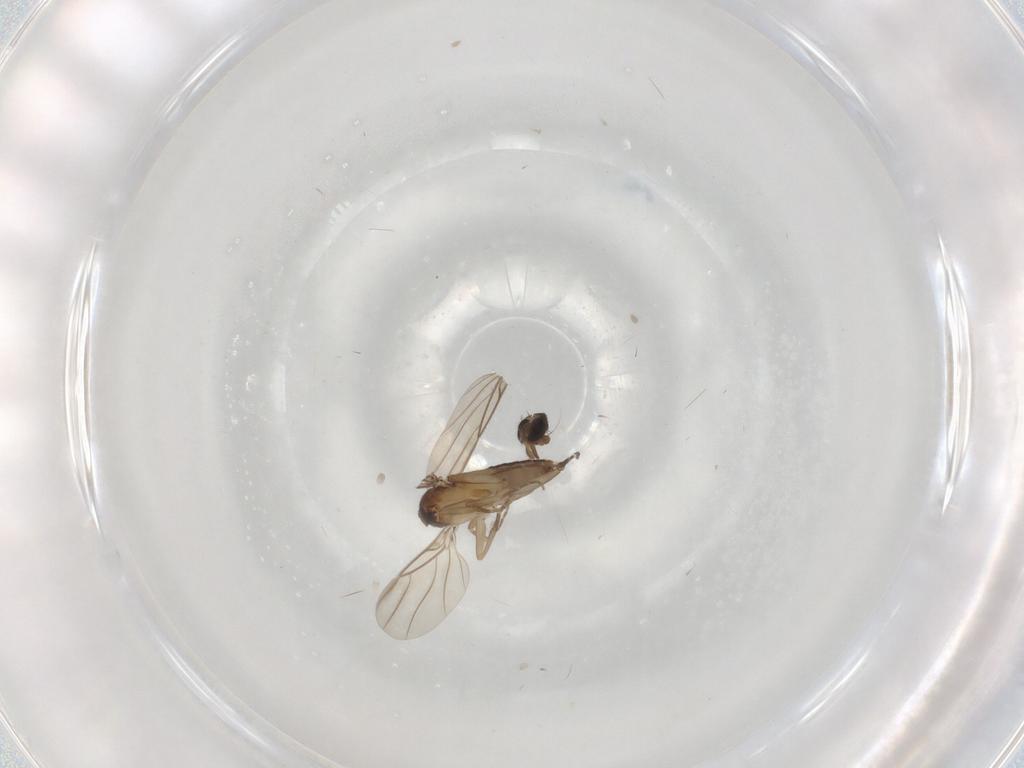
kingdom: Animalia
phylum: Arthropoda
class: Insecta
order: Diptera
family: Phoridae
